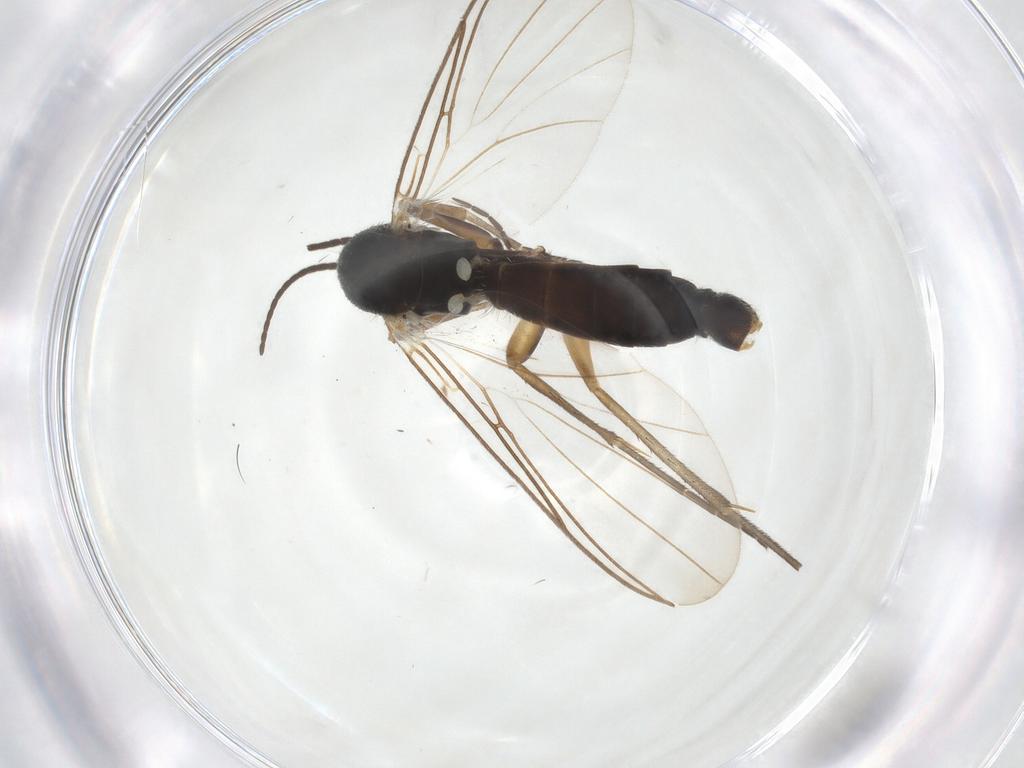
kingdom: Animalia
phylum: Arthropoda
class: Insecta
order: Diptera
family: Mycetophilidae
